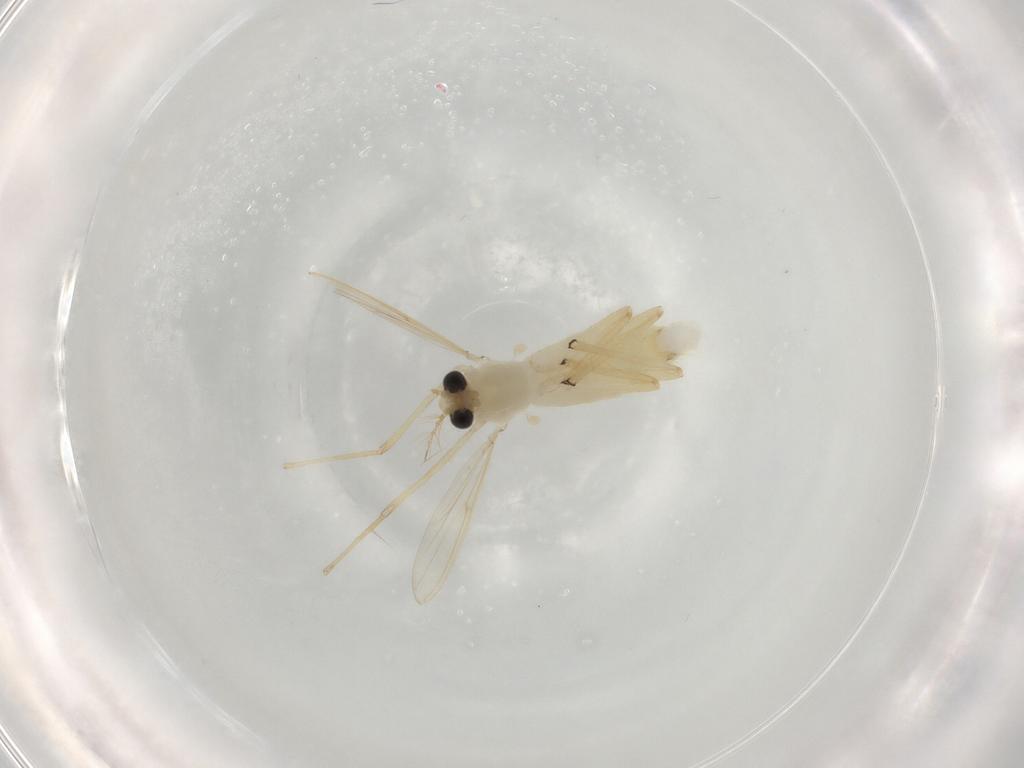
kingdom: Animalia
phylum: Arthropoda
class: Insecta
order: Diptera
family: Chironomidae
